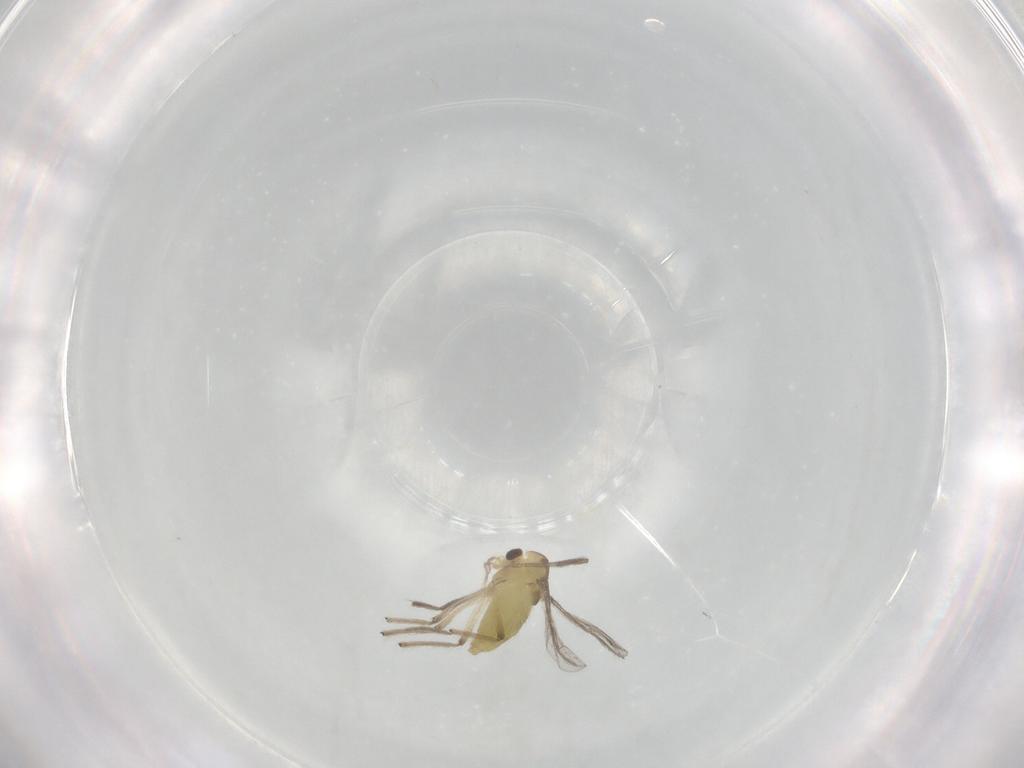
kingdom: Animalia
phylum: Arthropoda
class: Insecta
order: Diptera
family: Chironomidae
